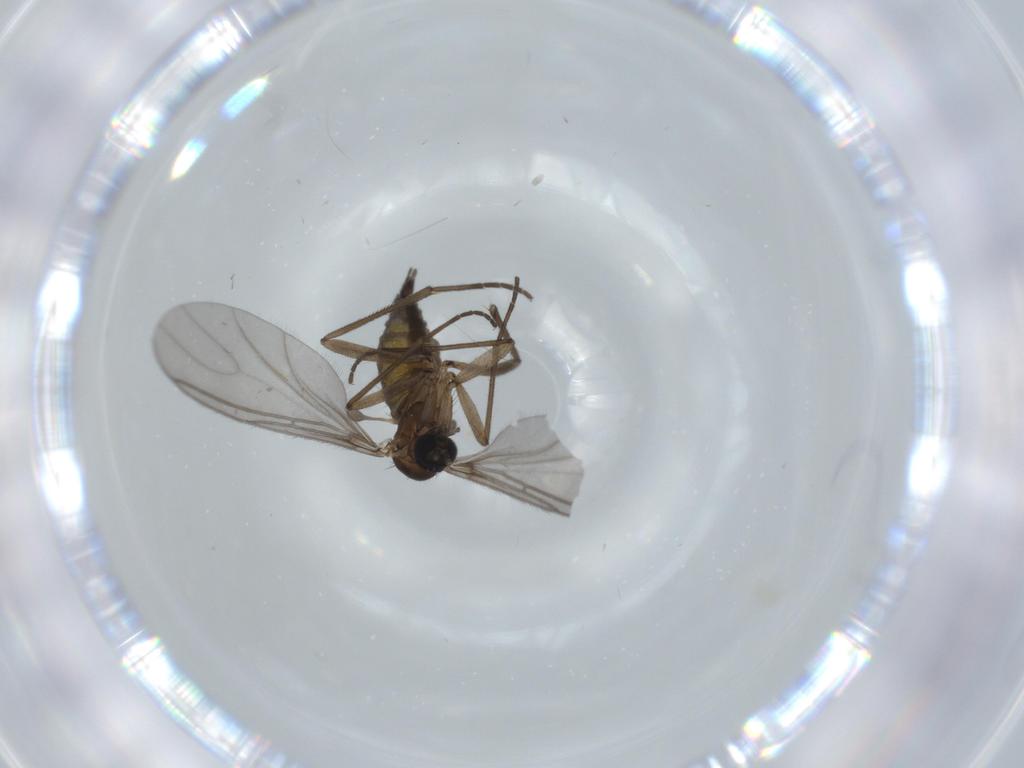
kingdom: Animalia
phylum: Arthropoda
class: Insecta
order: Diptera
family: Sciaridae
